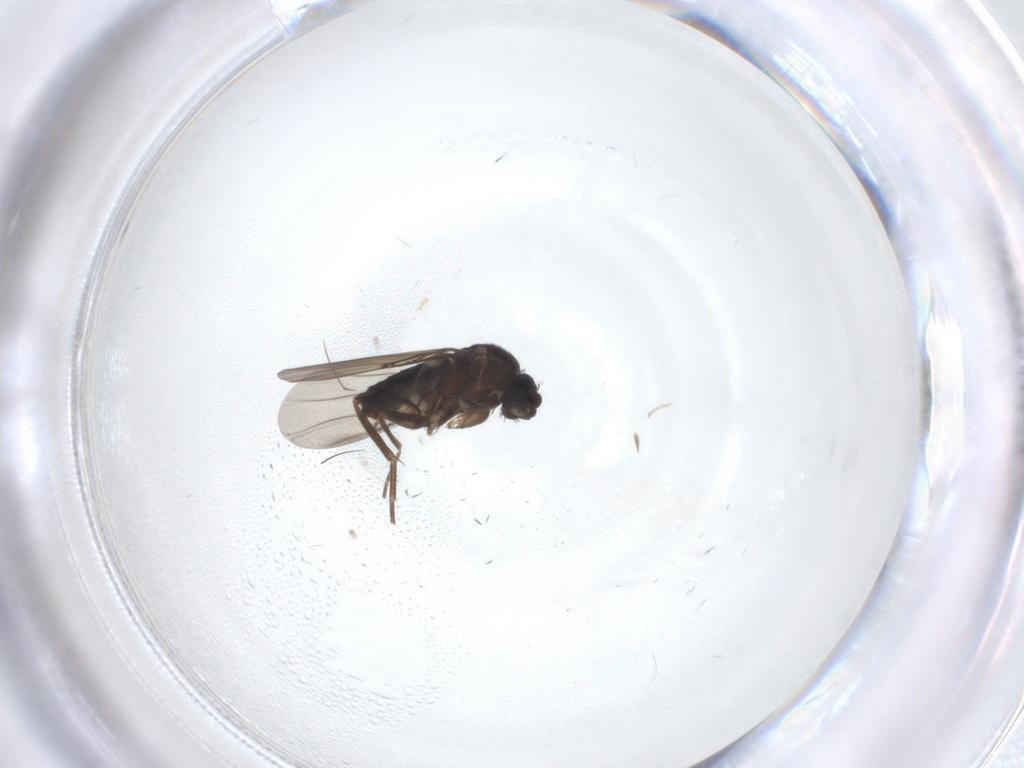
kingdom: Animalia
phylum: Arthropoda
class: Insecta
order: Diptera
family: Cecidomyiidae
